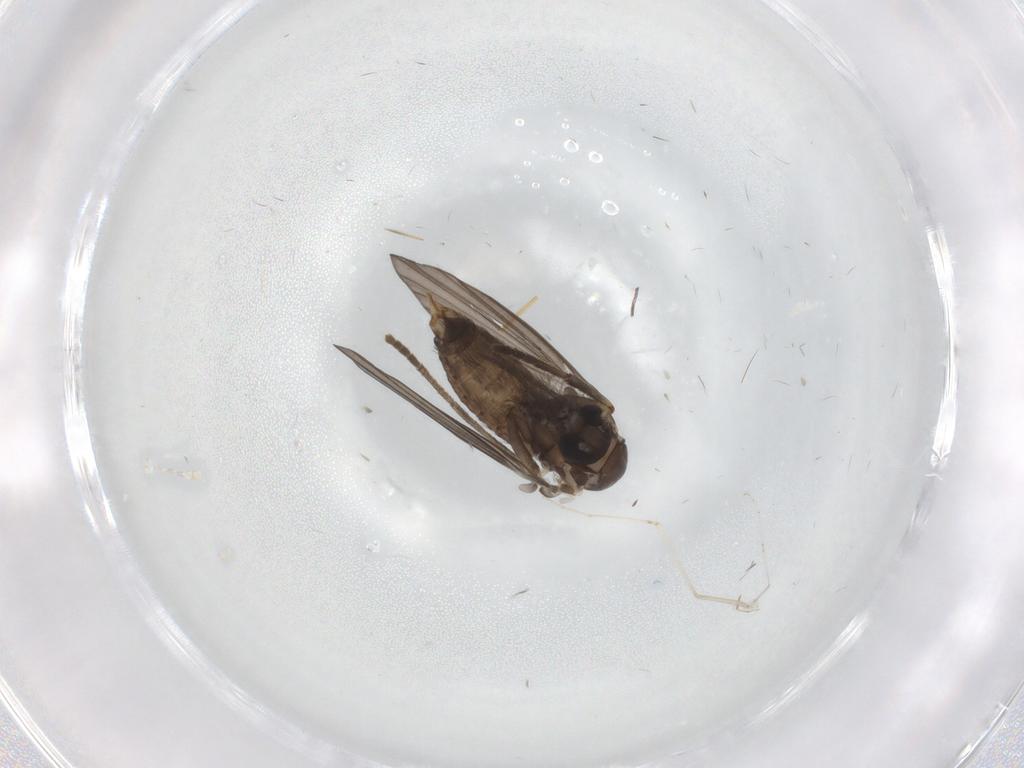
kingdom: Animalia
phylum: Arthropoda
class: Insecta
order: Diptera
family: Psychodidae
